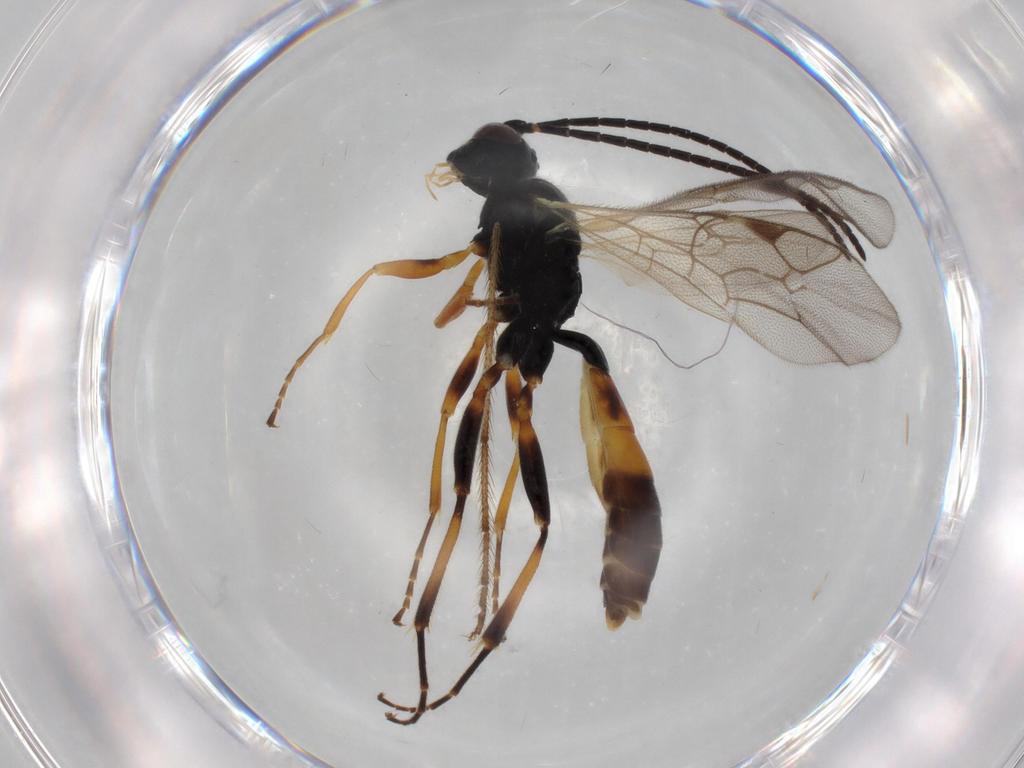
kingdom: Animalia
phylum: Arthropoda
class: Insecta
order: Hymenoptera
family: Ichneumonidae
